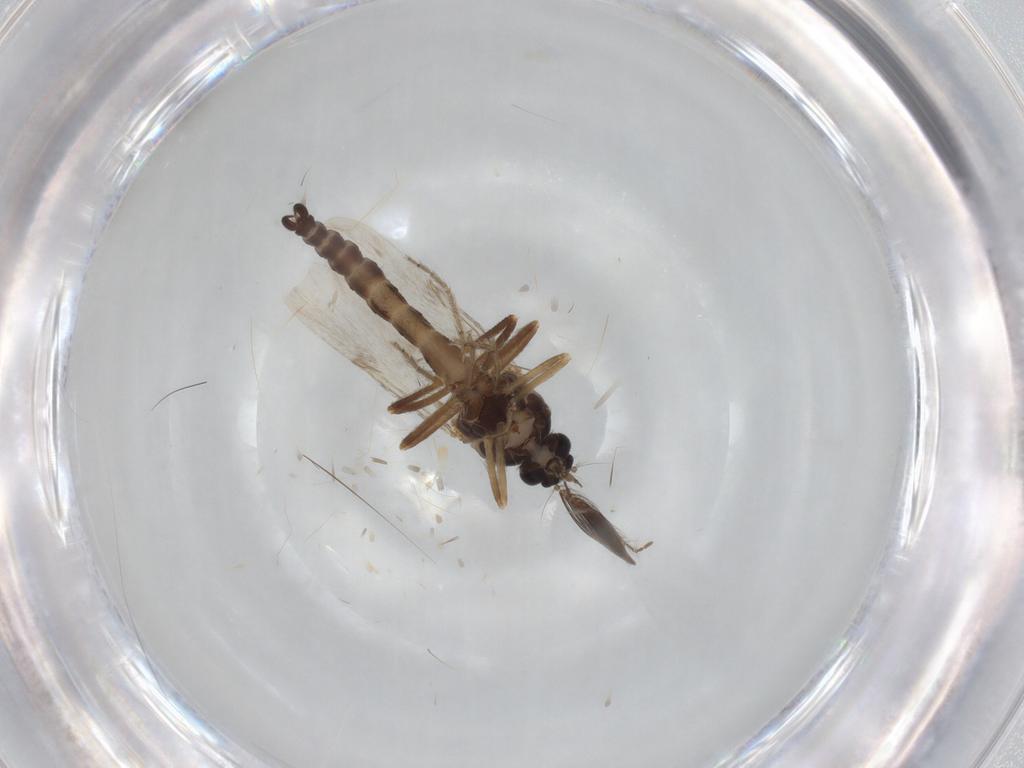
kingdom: Animalia
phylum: Arthropoda
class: Insecta
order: Diptera
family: Ceratopogonidae
